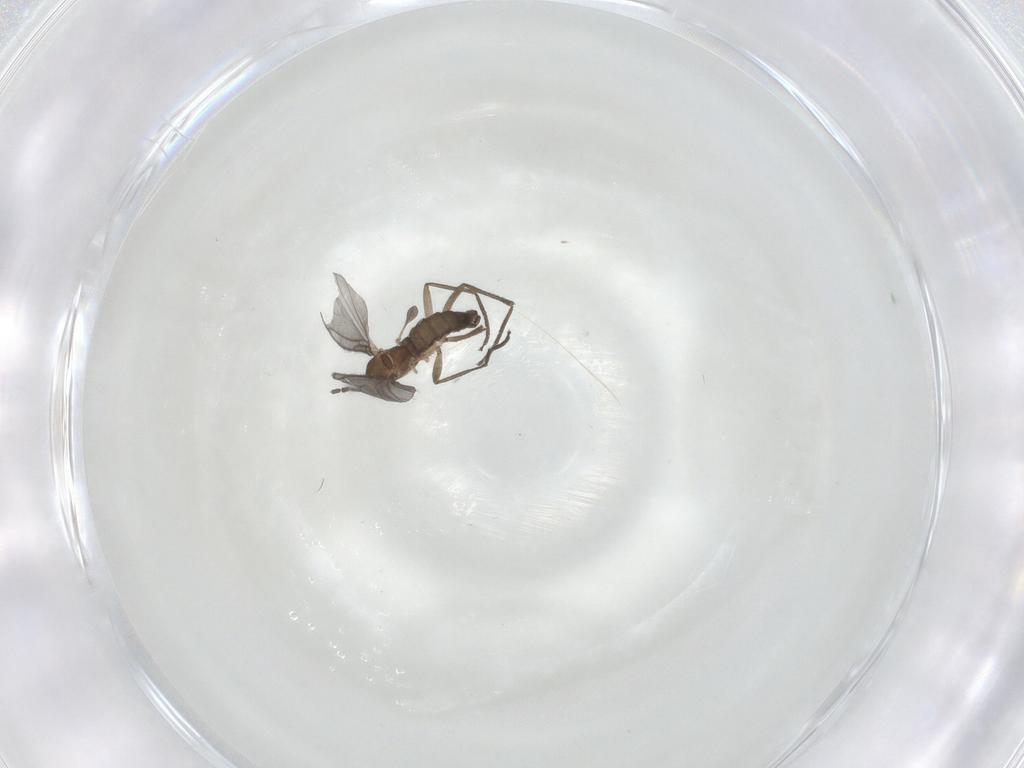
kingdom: Animalia
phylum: Arthropoda
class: Insecta
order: Diptera
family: Sciaridae
